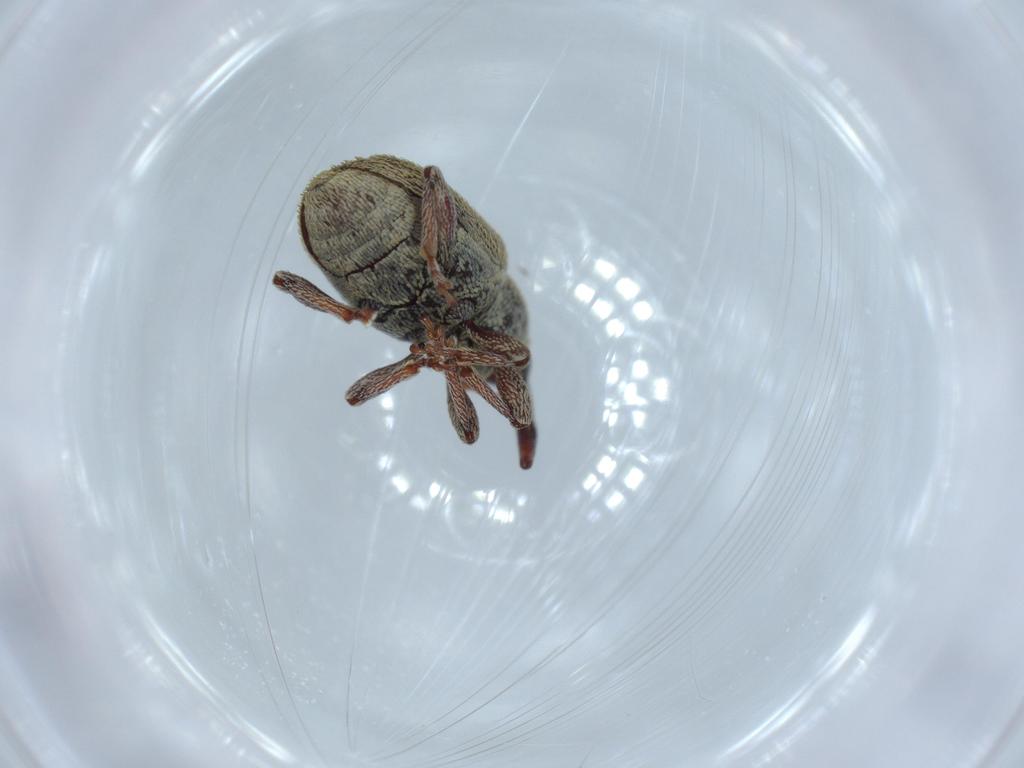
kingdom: Animalia
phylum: Arthropoda
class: Insecta
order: Coleoptera
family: Curculionidae
